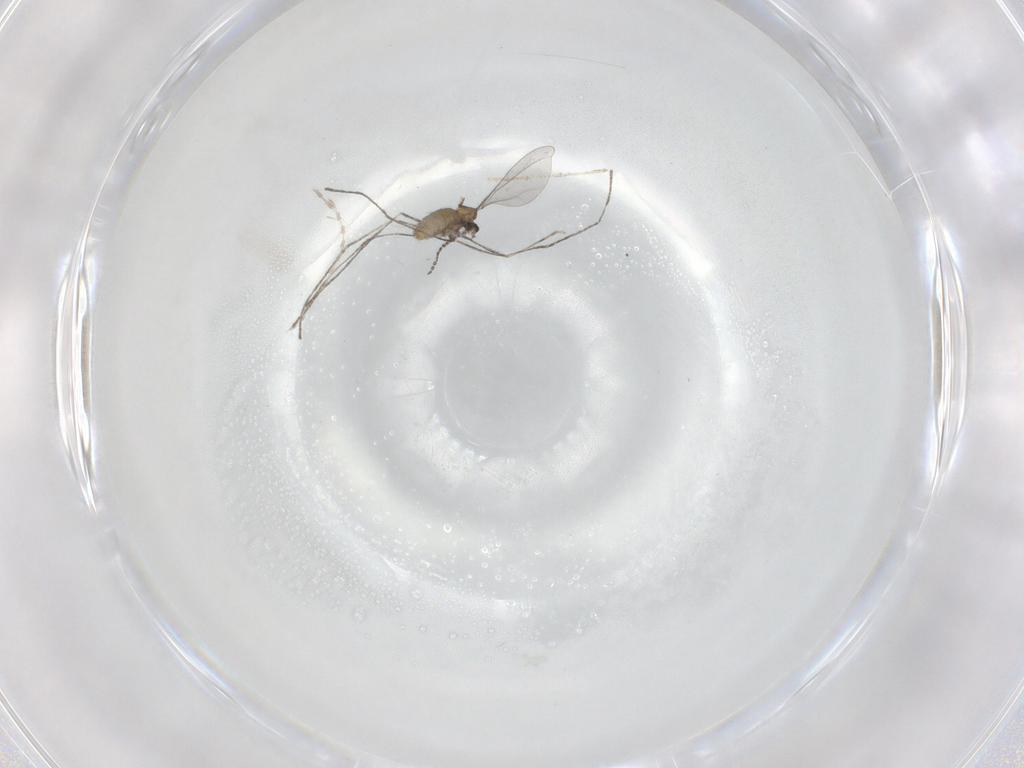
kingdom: Animalia
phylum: Arthropoda
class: Insecta
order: Diptera
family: Cecidomyiidae
